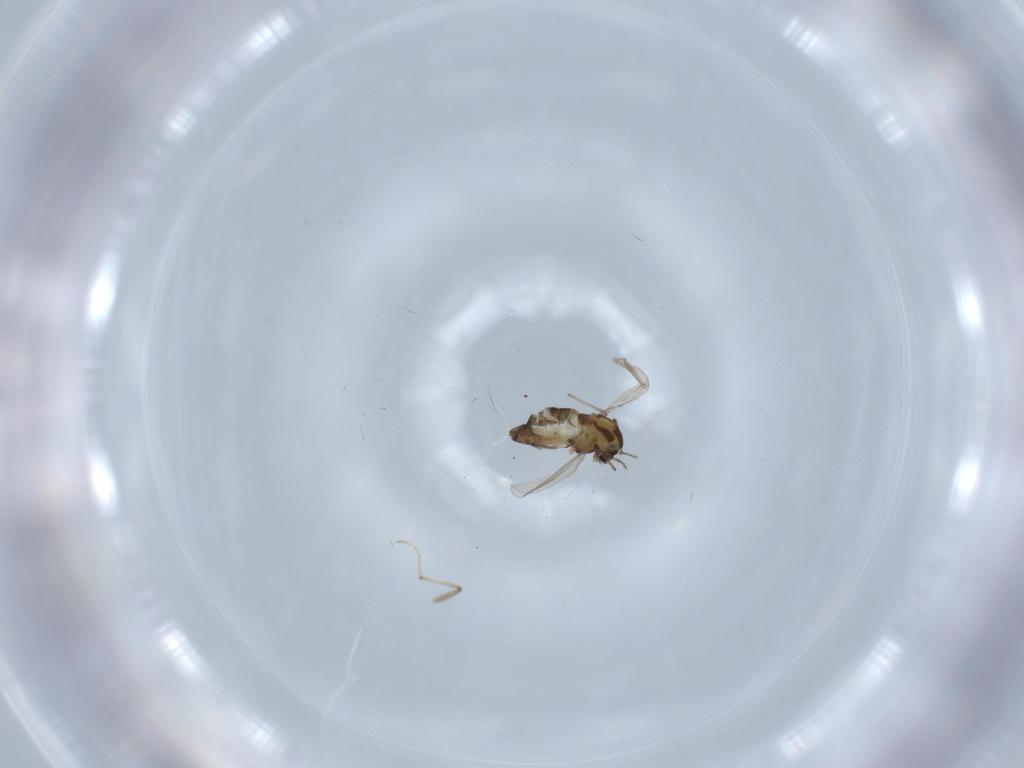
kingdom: Animalia
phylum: Arthropoda
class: Insecta
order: Diptera
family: Chironomidae
